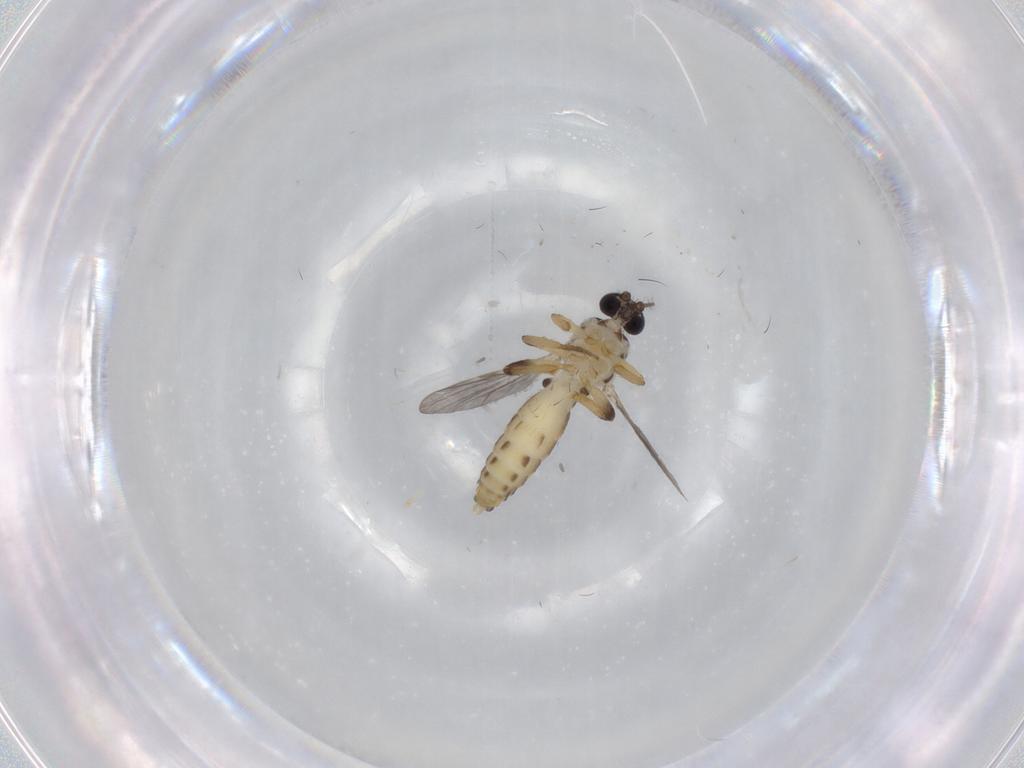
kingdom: Animalia
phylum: Arthropoda
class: Insecta
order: Diptera
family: Ceratopogonidae
